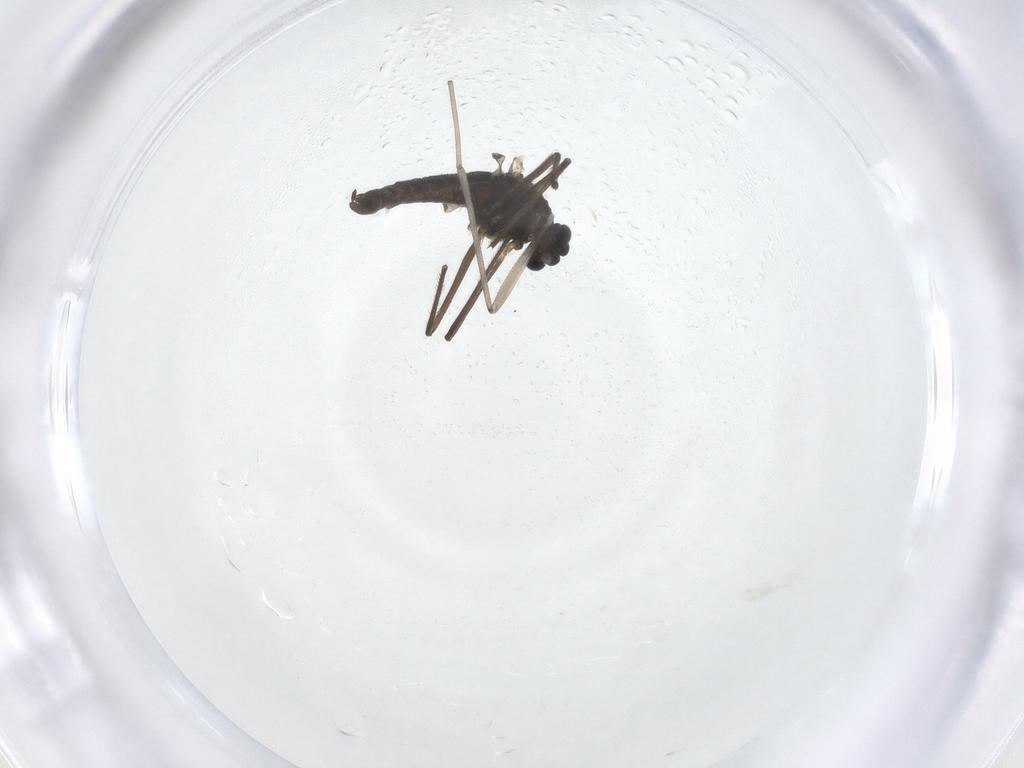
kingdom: Animalia
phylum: Arthropoda
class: Insecta
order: Diptera
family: Chironomidae
